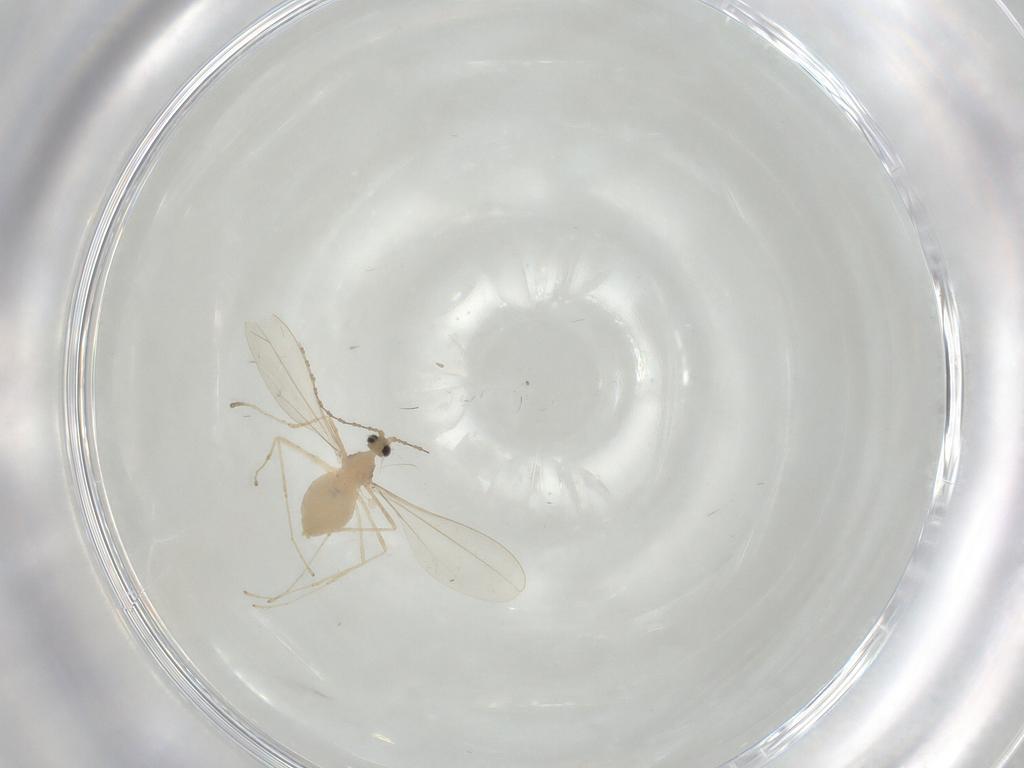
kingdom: Animalia
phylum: Arthropoda
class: Insecta
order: Diptera
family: Cecidomyiidae
